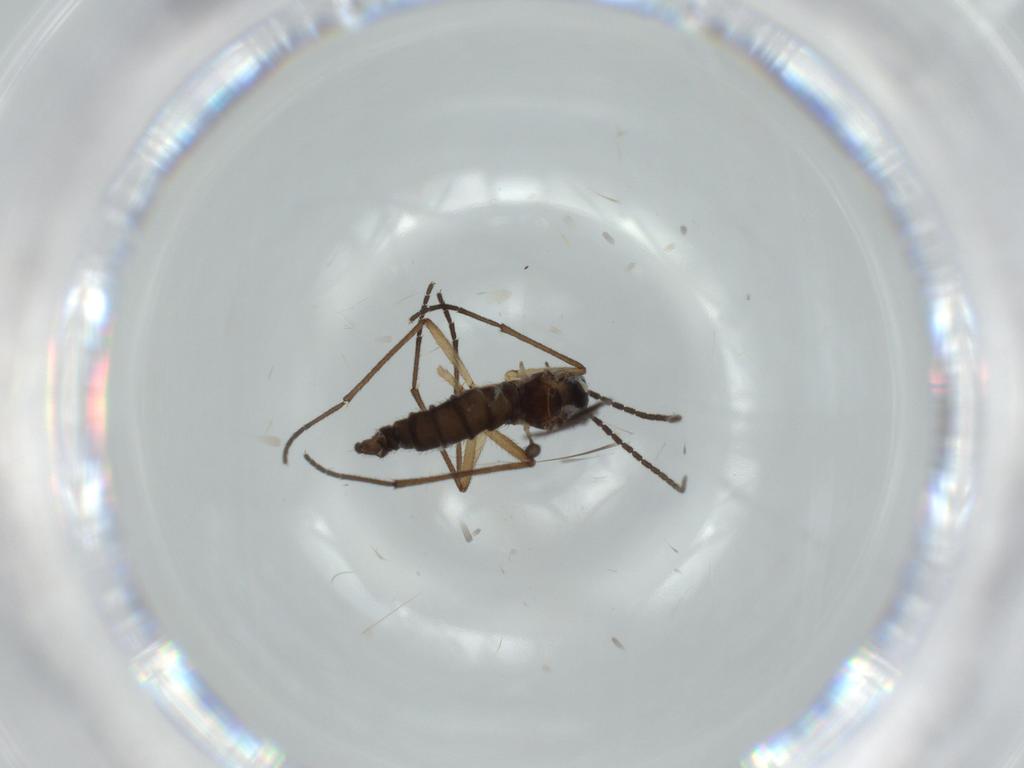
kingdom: Animalia
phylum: Arthropoda
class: Insecta
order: Diptera
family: Sciaridae
